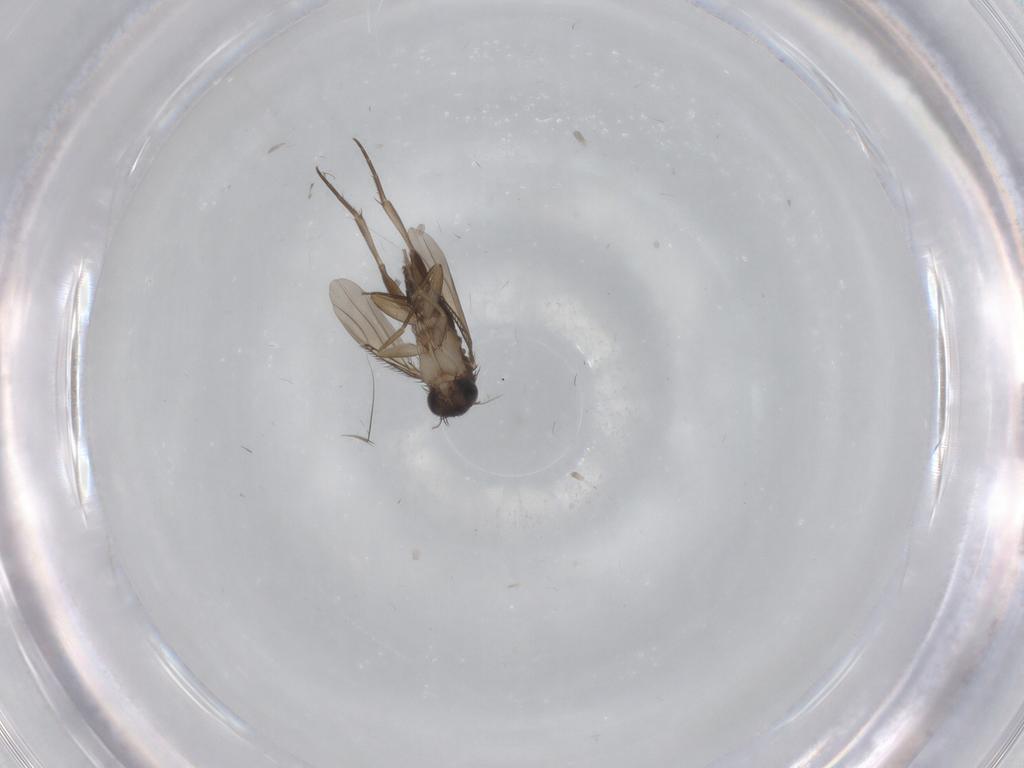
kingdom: Animalia
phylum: Arthropoda
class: Insecta
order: Diptera
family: Phoridae
